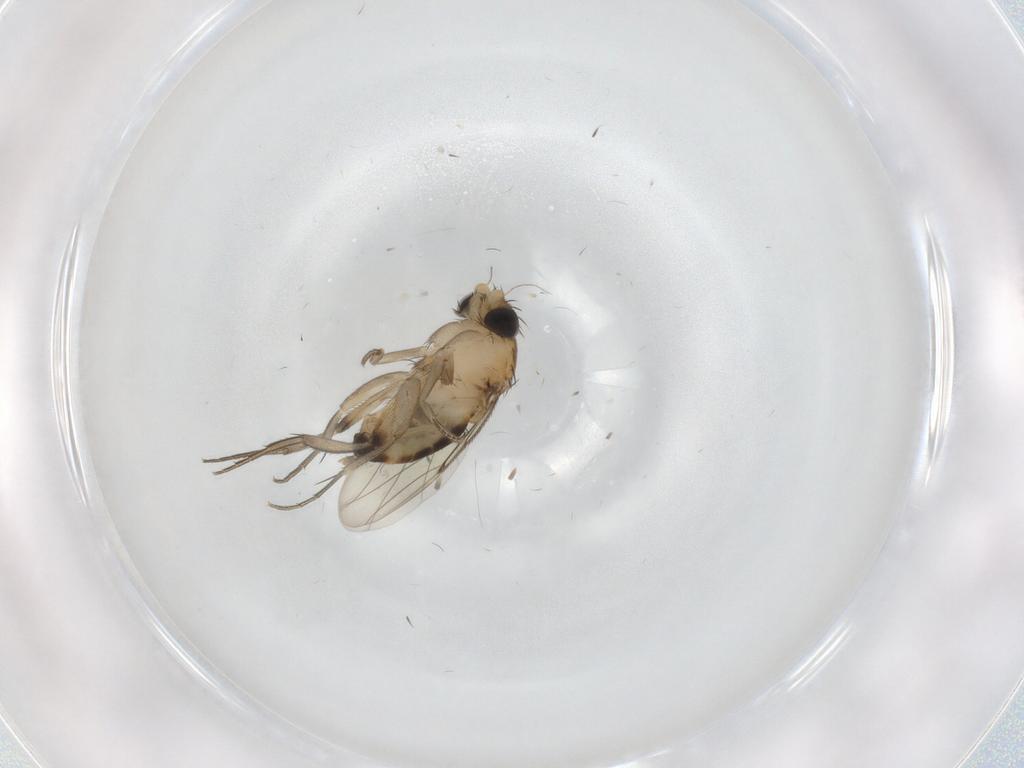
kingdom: Animalia
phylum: Arthropoda
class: Insecta
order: Diptera
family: Phoridae
